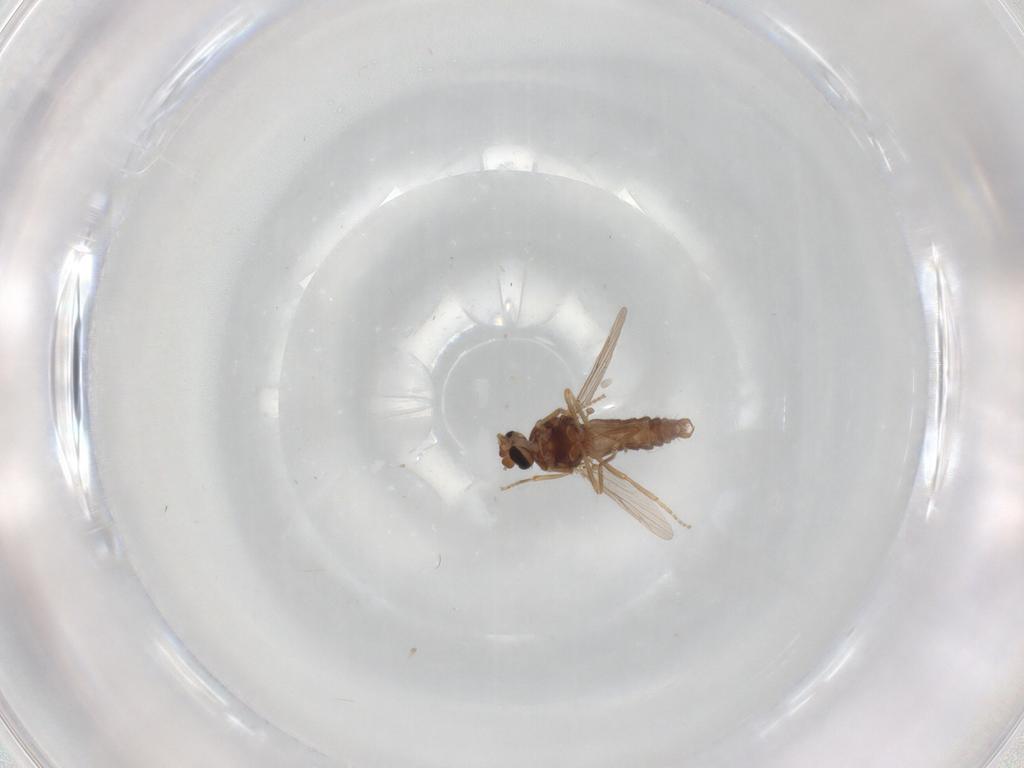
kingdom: Animalia
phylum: Arthropoda
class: Insecta
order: Diptera
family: Ceratopogonidae
